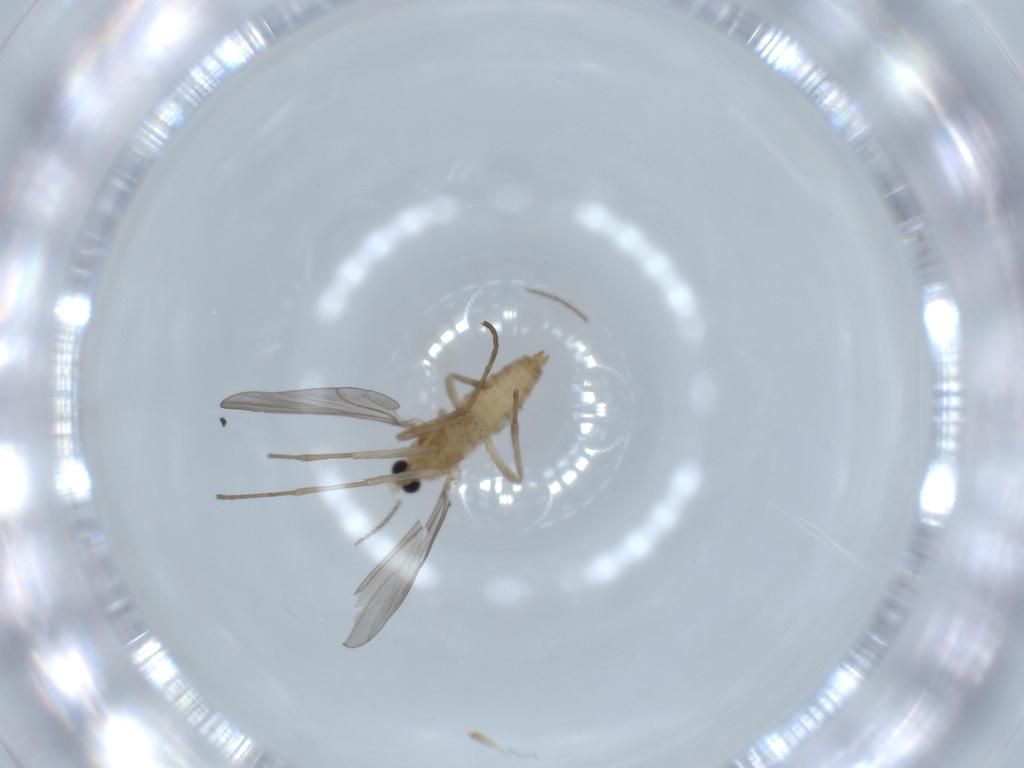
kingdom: Animalia
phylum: Arthropoda
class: Insecta
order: Diptera
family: Cecidomyiidae
